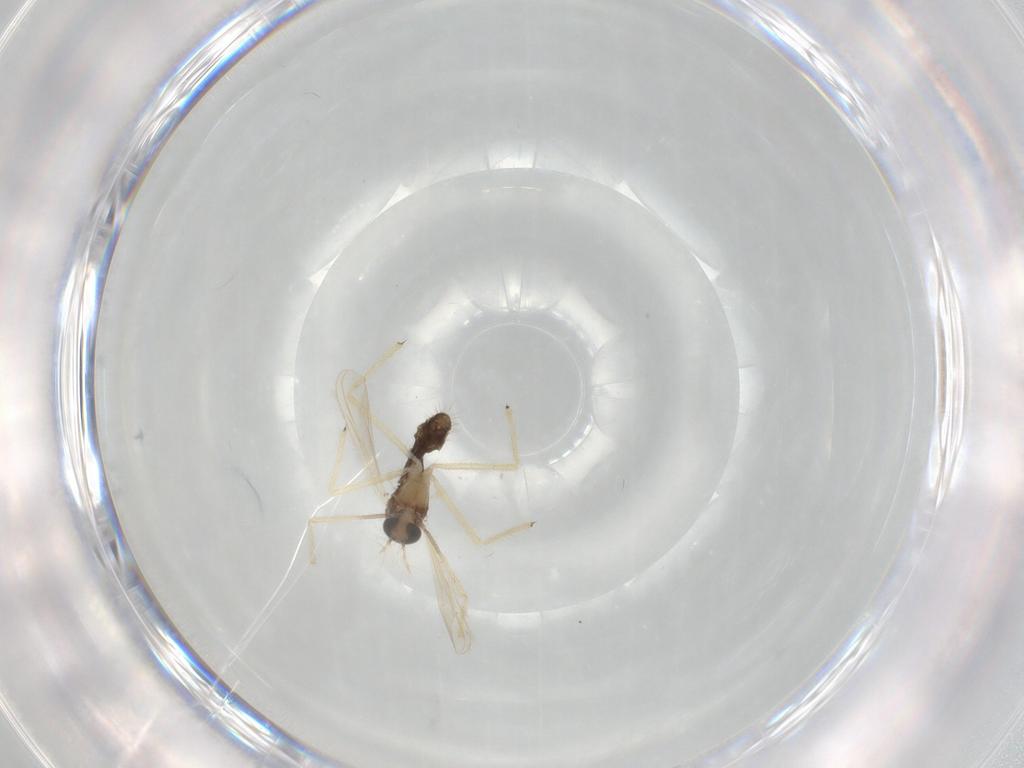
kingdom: Animalia
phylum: Arthropoda
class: Insecta
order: Diptera
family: Chironomidae
